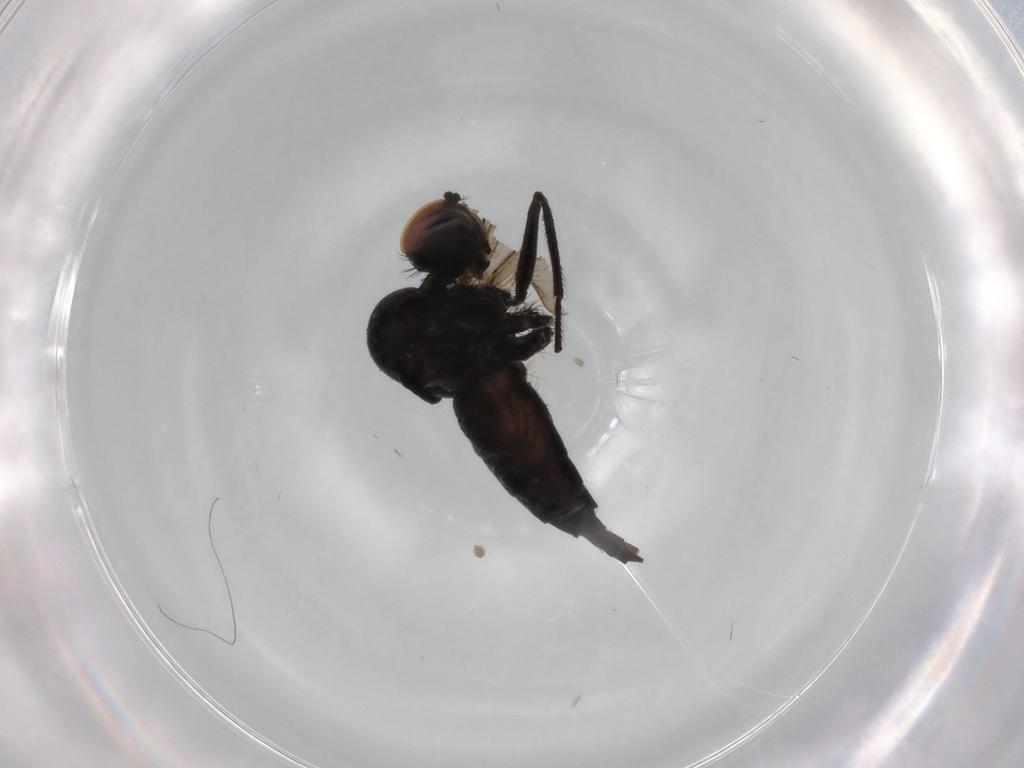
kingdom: Animalia
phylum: Arthropoda
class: Insecta
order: Diptera
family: Hybotidae
